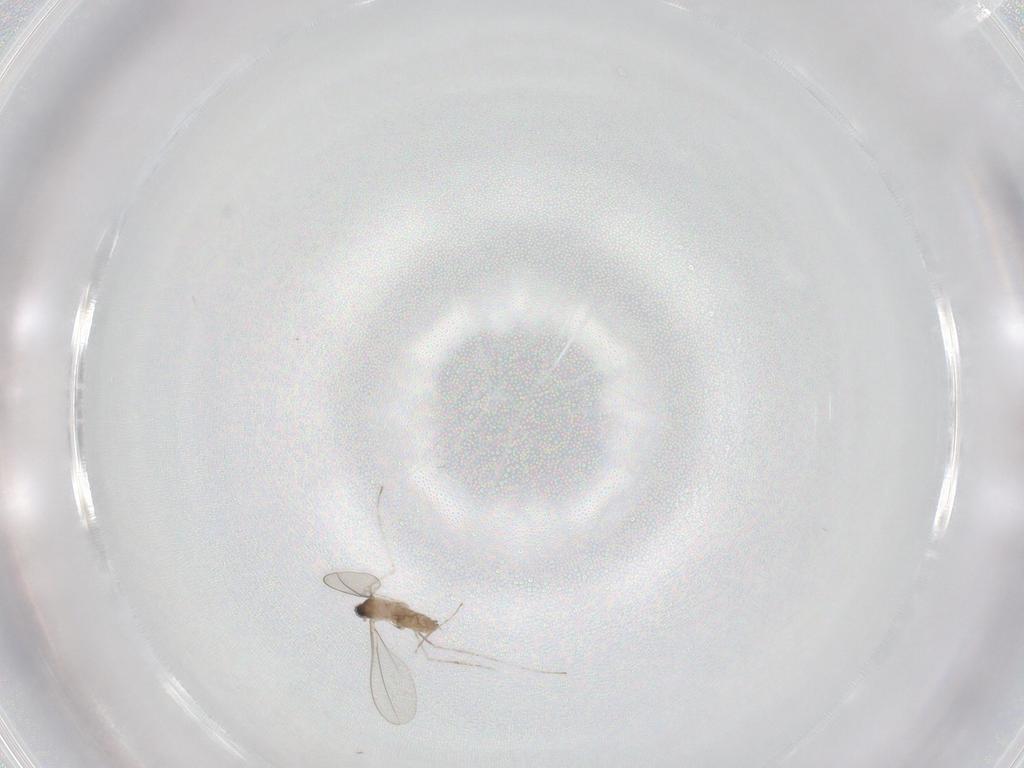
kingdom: Animalia
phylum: Arthropoda
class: Insecta
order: Diptera
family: Cecidomyiidae
